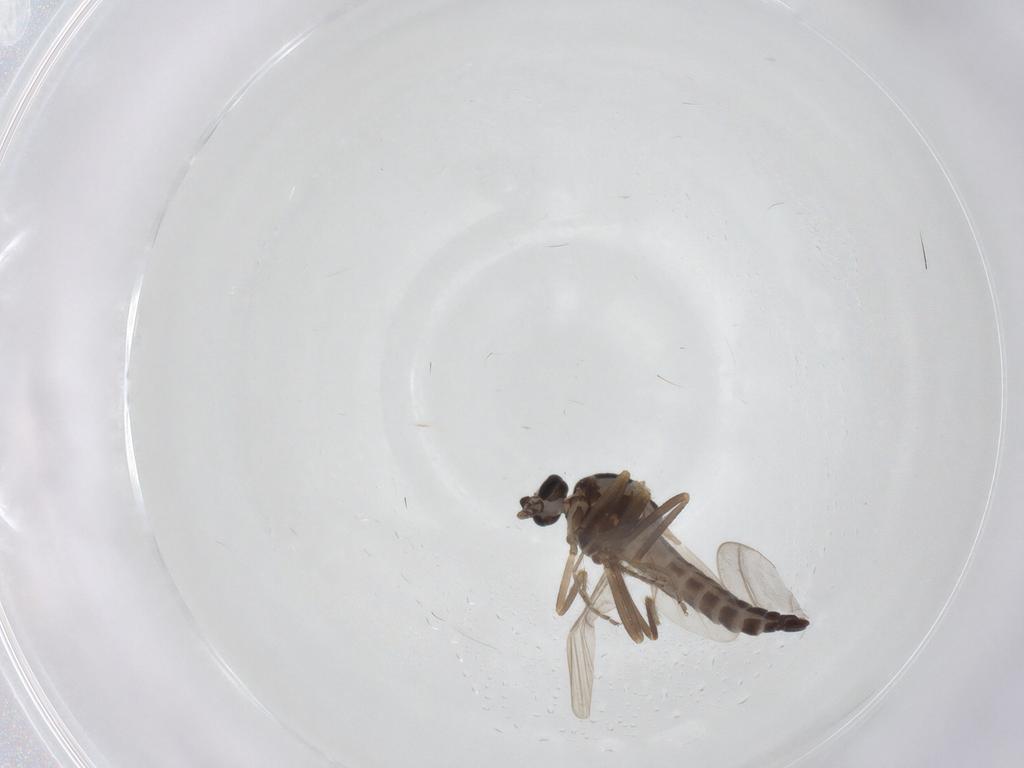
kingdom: Animalia
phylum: Arthropoda
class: Insecta
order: Diptera
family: Ceratopogonidae
